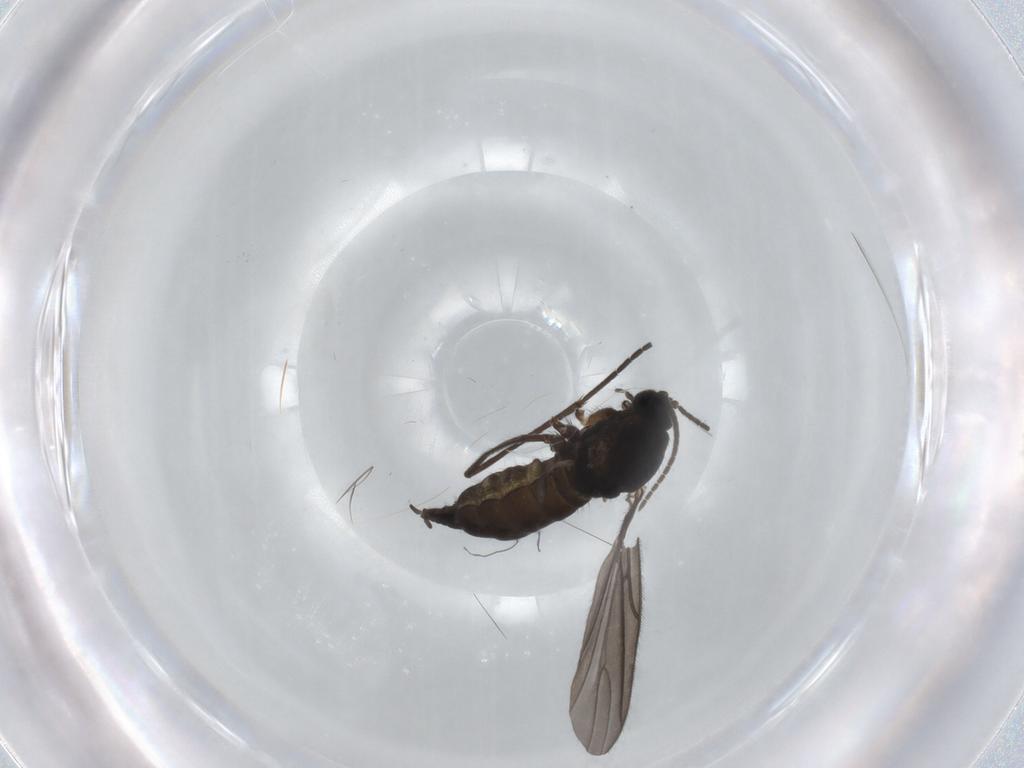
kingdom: Animalia
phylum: Arthropoda
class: Insecta
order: Diptera
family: Sciaridae
